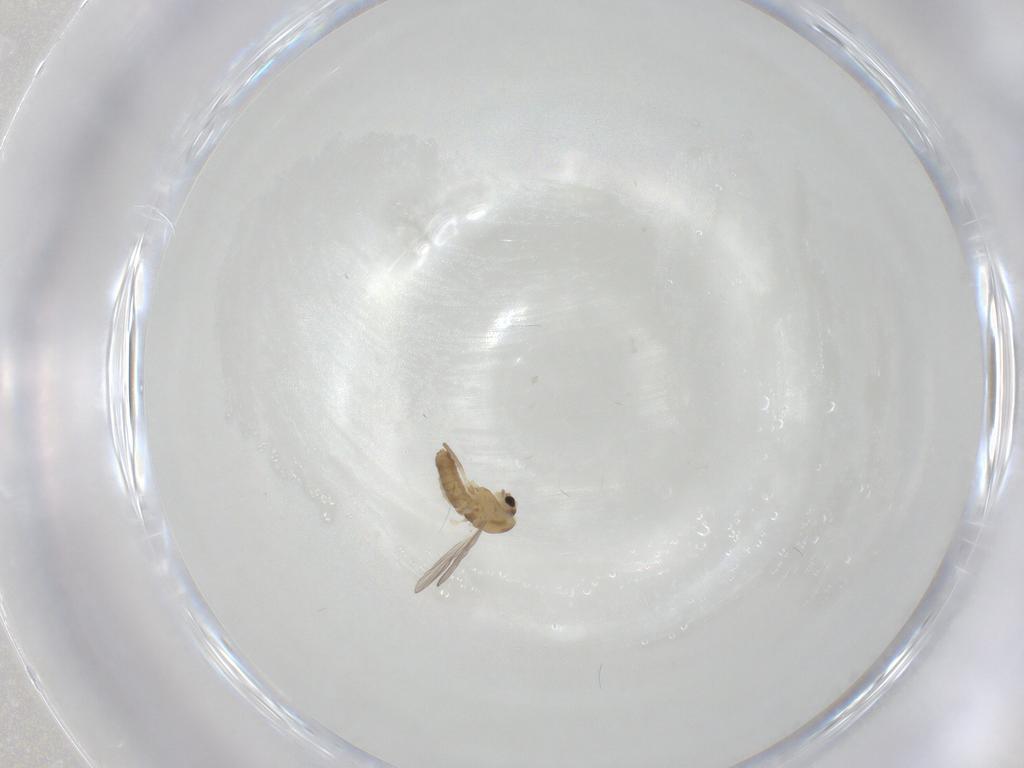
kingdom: Animalia
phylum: Arthropoda
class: Insecta
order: Diptera
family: Chironomidae
